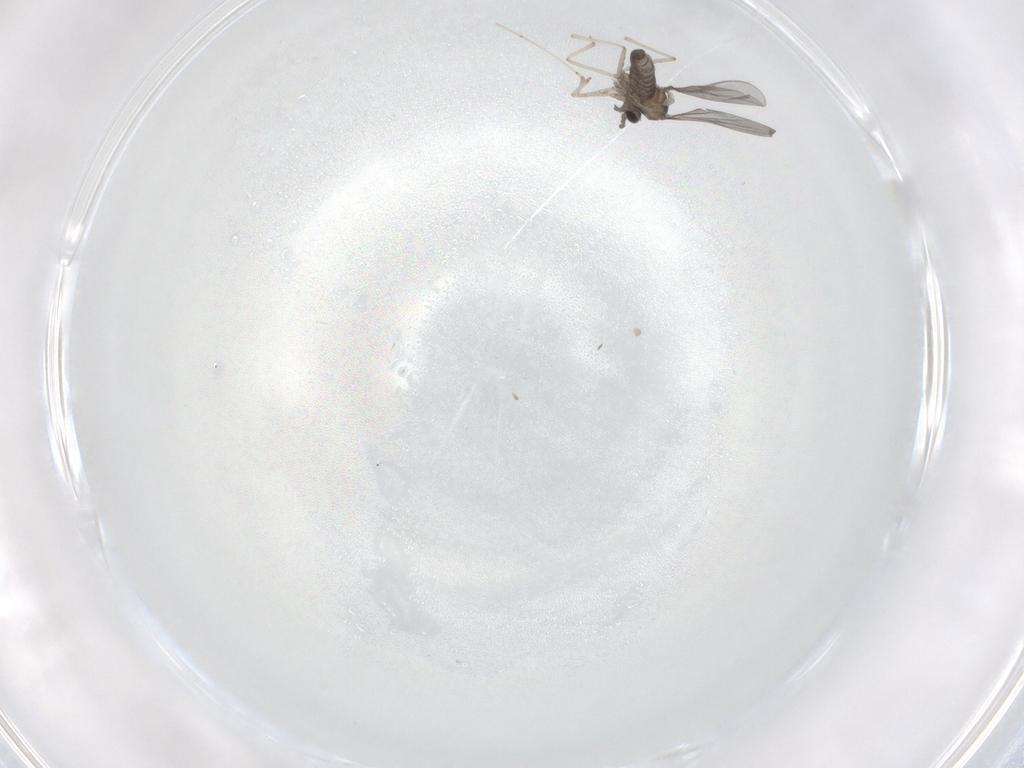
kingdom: Animalia
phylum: Arthropoda
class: Insecta
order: Diptera
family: Cecidomyiidae
